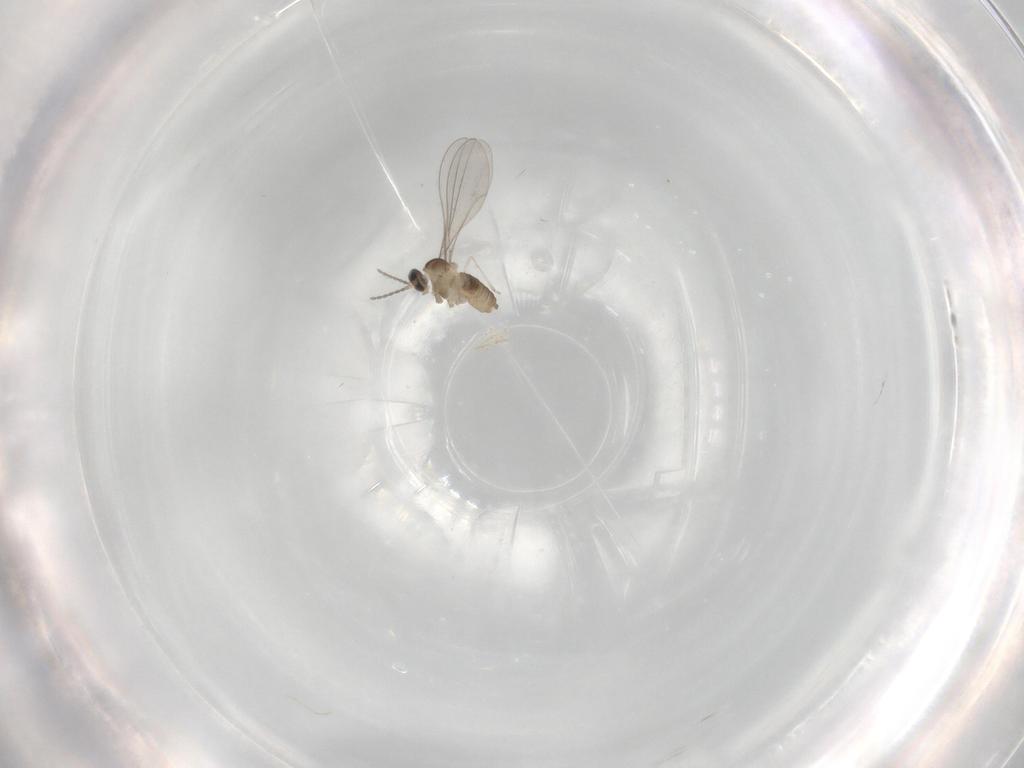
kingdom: Animalia
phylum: Arthropoda
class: Insecta
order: Diptera
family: Cecidomyiidae
